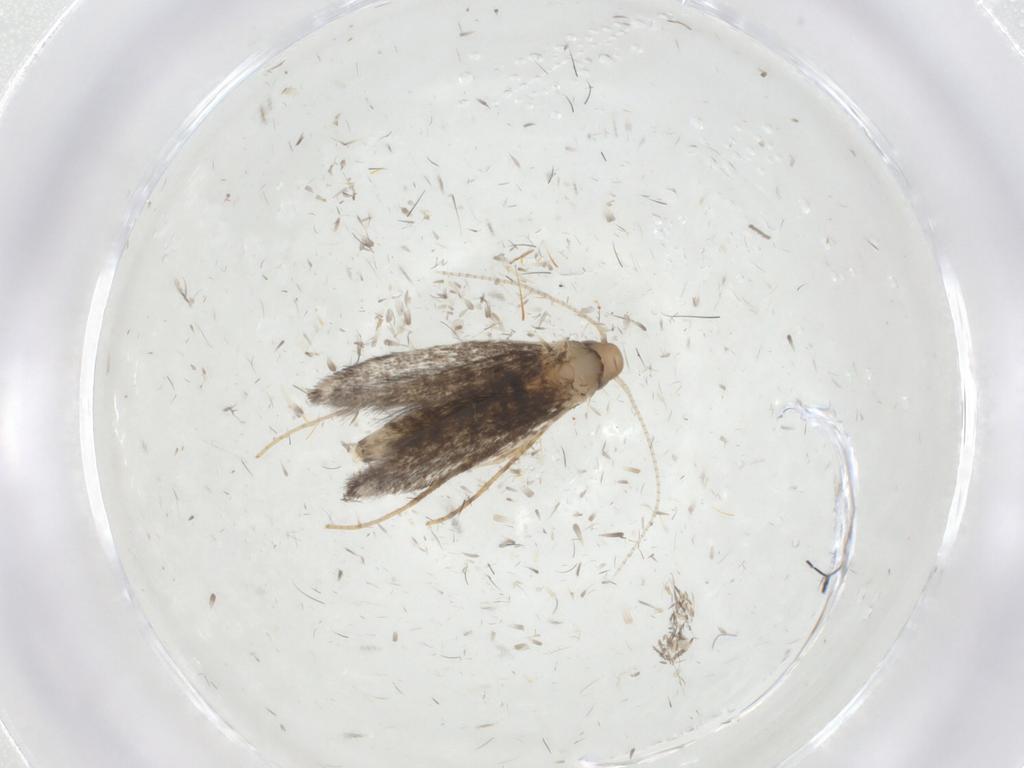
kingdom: Animalia
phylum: Arthropoda
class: Insecta
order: Lepidoptera
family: Gracillariidae
